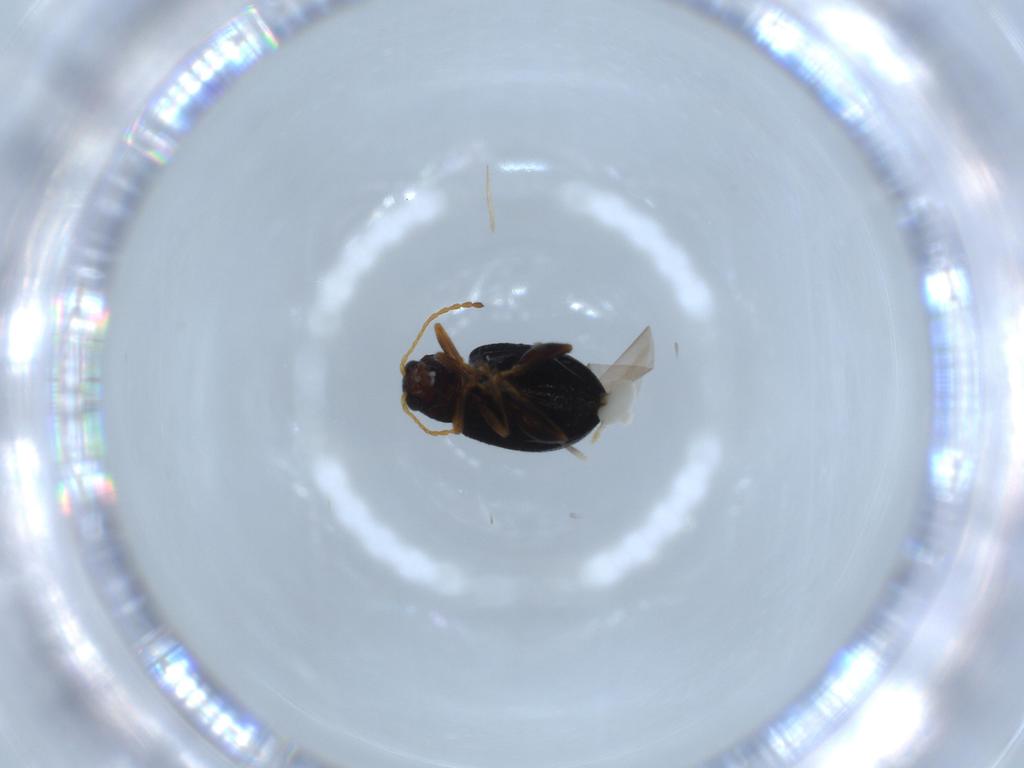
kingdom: Animalia
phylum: Arthropoda
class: Insecta
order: Coleoptera
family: Chrysomelidae
